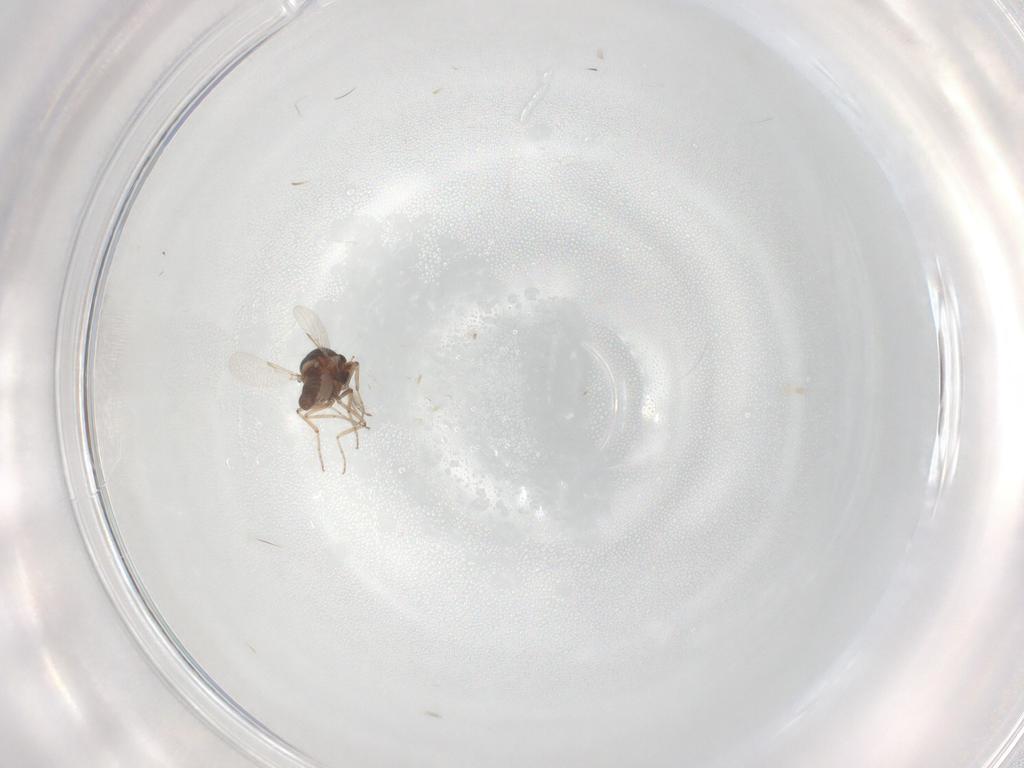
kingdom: Animalia
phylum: Arthropoda
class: Insecta
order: Diptera
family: Ceratopogonidae
